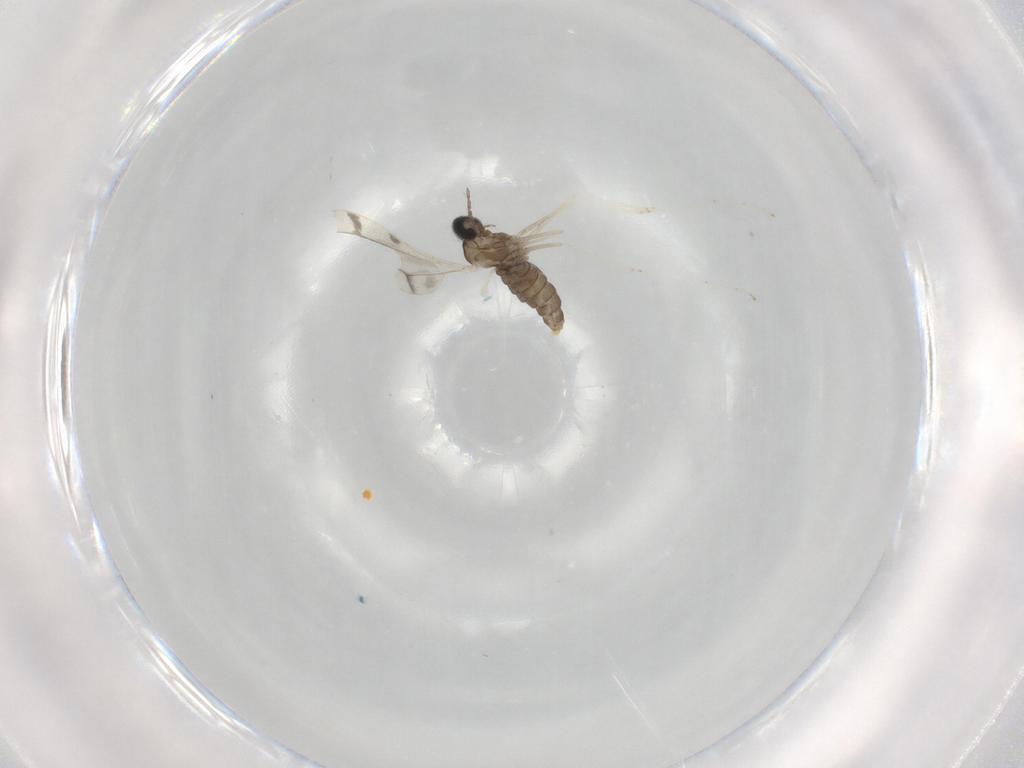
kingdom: Animalia
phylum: Arthropoda
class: Insecta
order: Diptera
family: Cecidomyiidae
